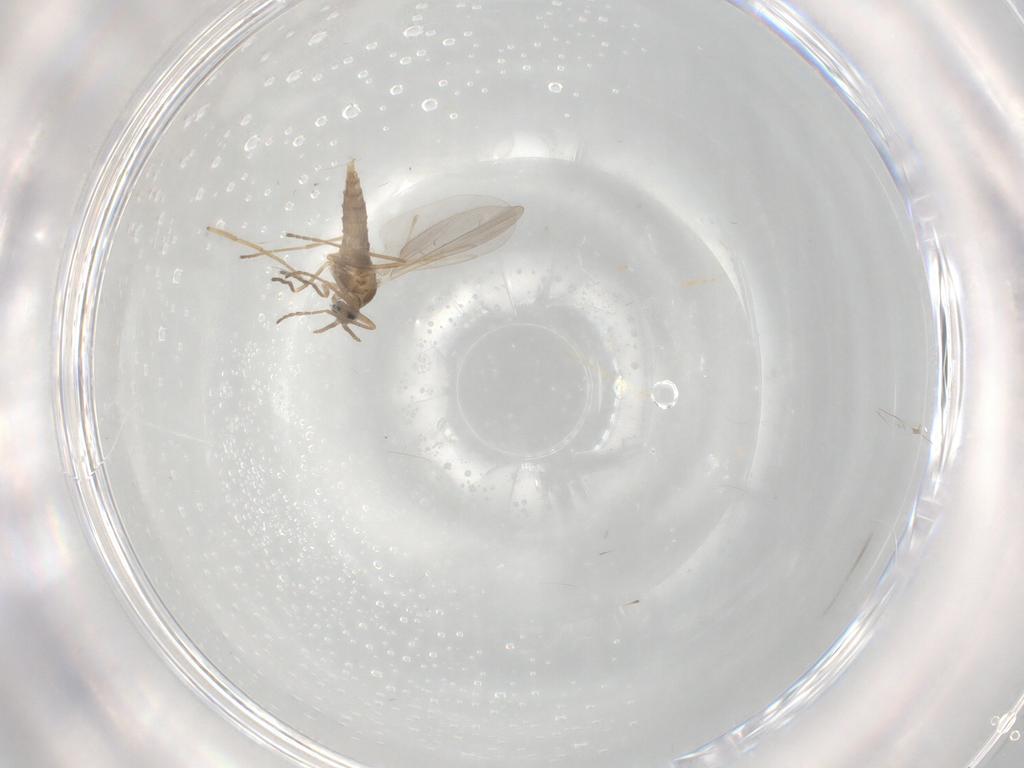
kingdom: Animalia
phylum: Arthropoda
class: Insecta
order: Diptera
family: Cecidomyiidae
